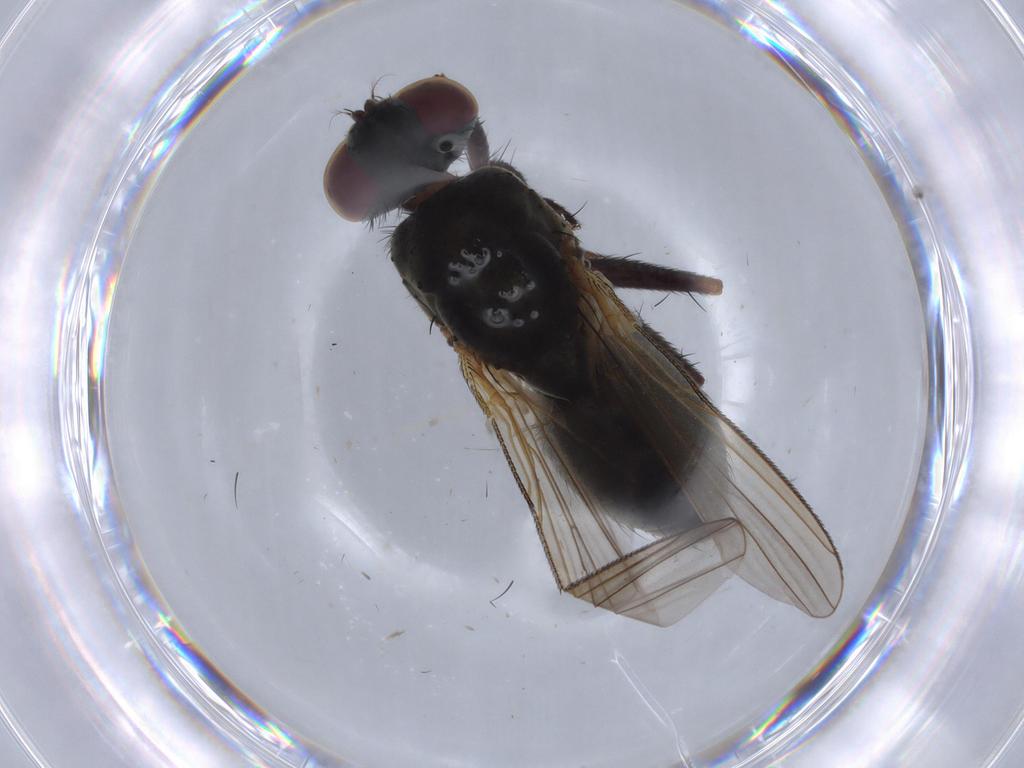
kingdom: Animalia
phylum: Arthropoda
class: Insecta
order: Diptera
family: Muscidae
